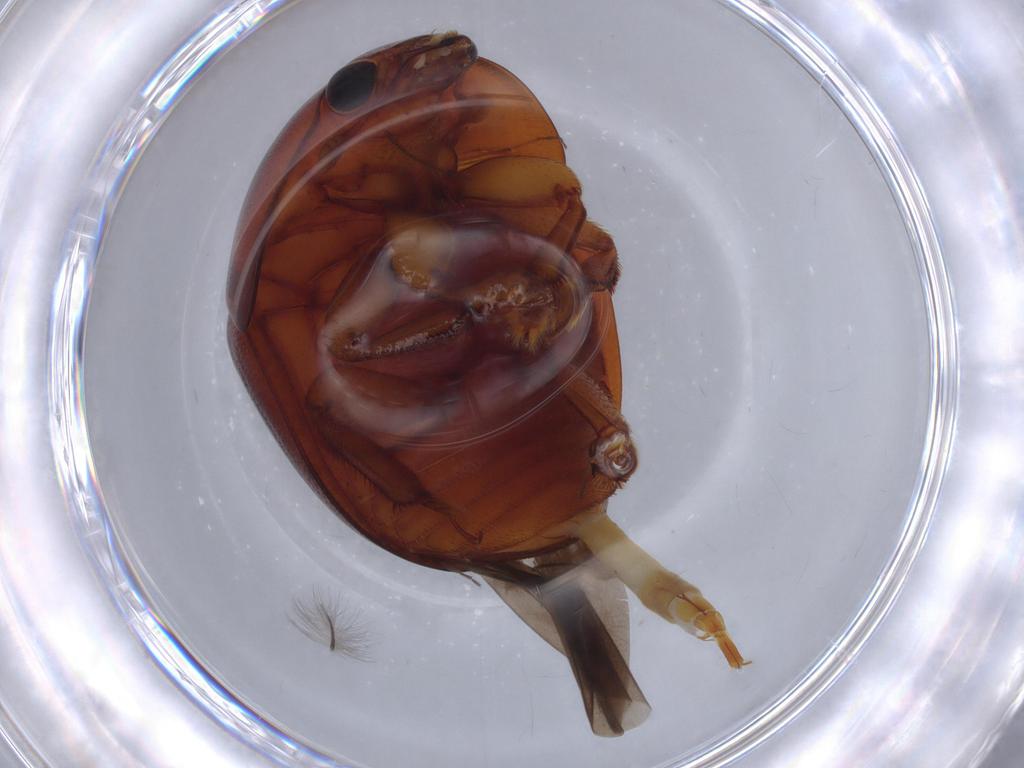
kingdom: Animalia
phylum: Arthropoda
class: Insecta
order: Coleoptera
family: Nitidulidae
